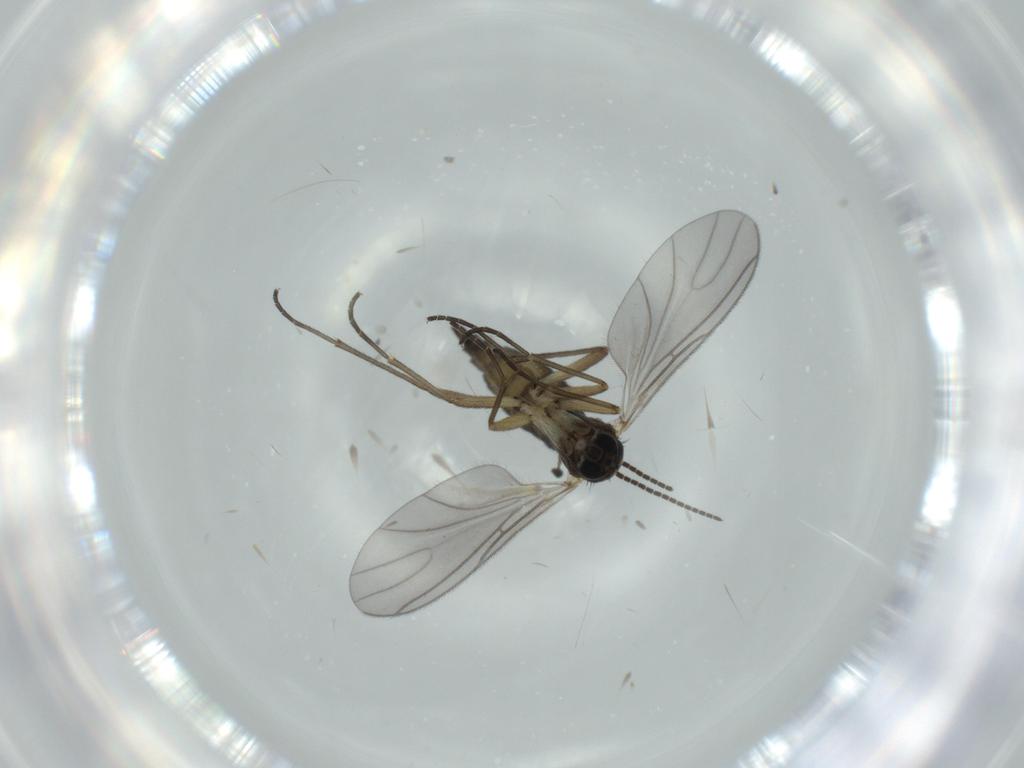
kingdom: Animalia
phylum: Arthropoda
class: Insecta
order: Diptera
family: Sciaridae
